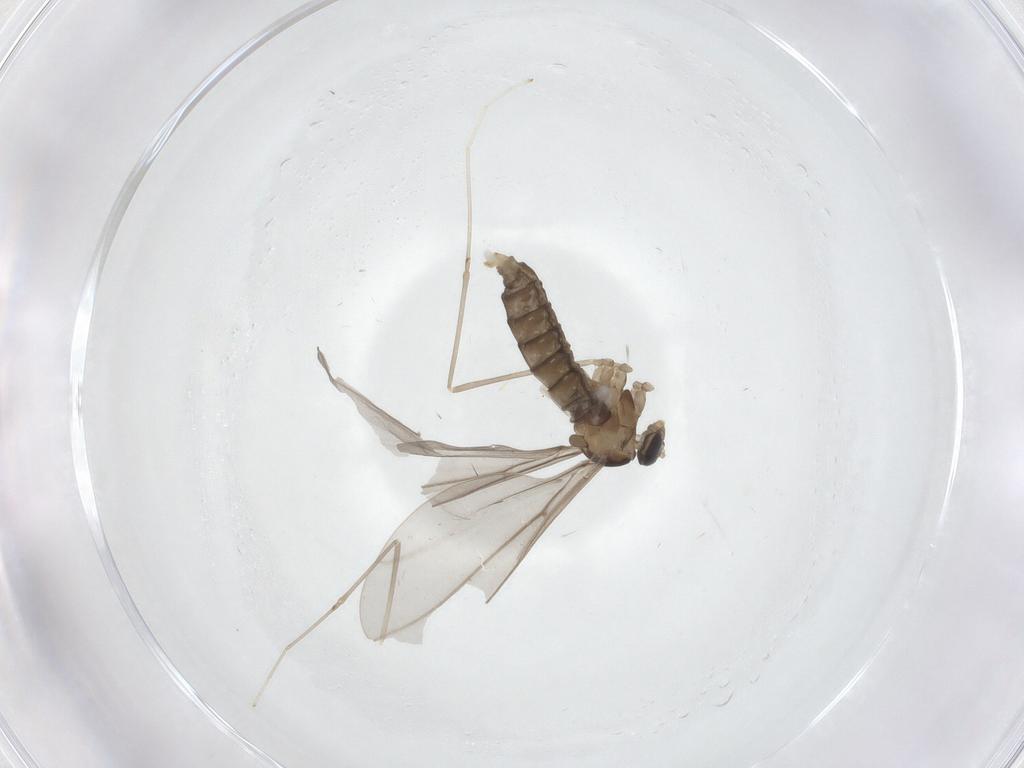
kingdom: Animalia
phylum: Arthropoda
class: Insecta
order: Diptera
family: Cecidomyiidae
